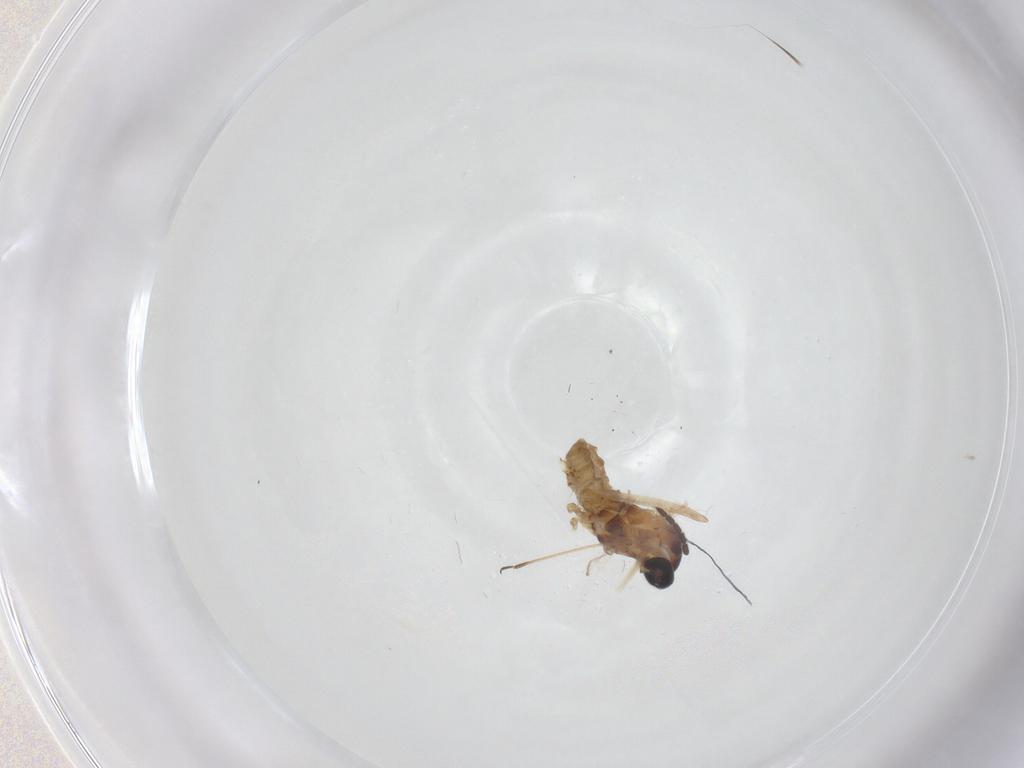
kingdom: Animalia
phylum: Arthropoda
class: Insecta
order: Diptera
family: Cecidomyiidae
